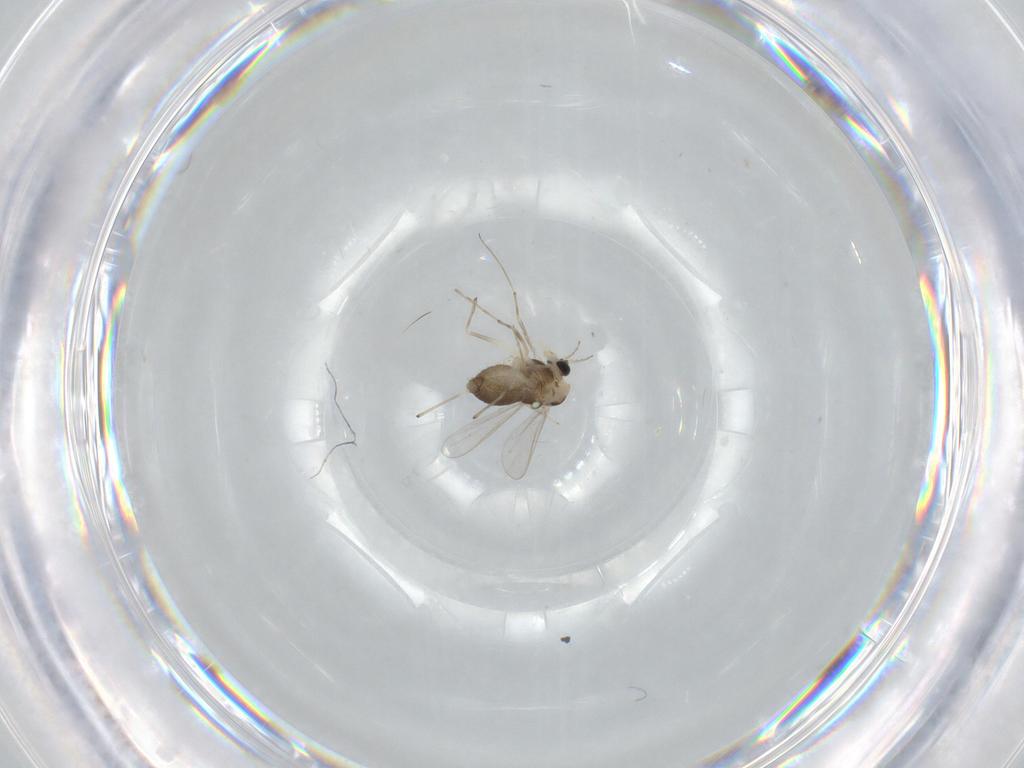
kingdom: Animalia
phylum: Arthropoda
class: Insecta
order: Diptera
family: Chironomidae
